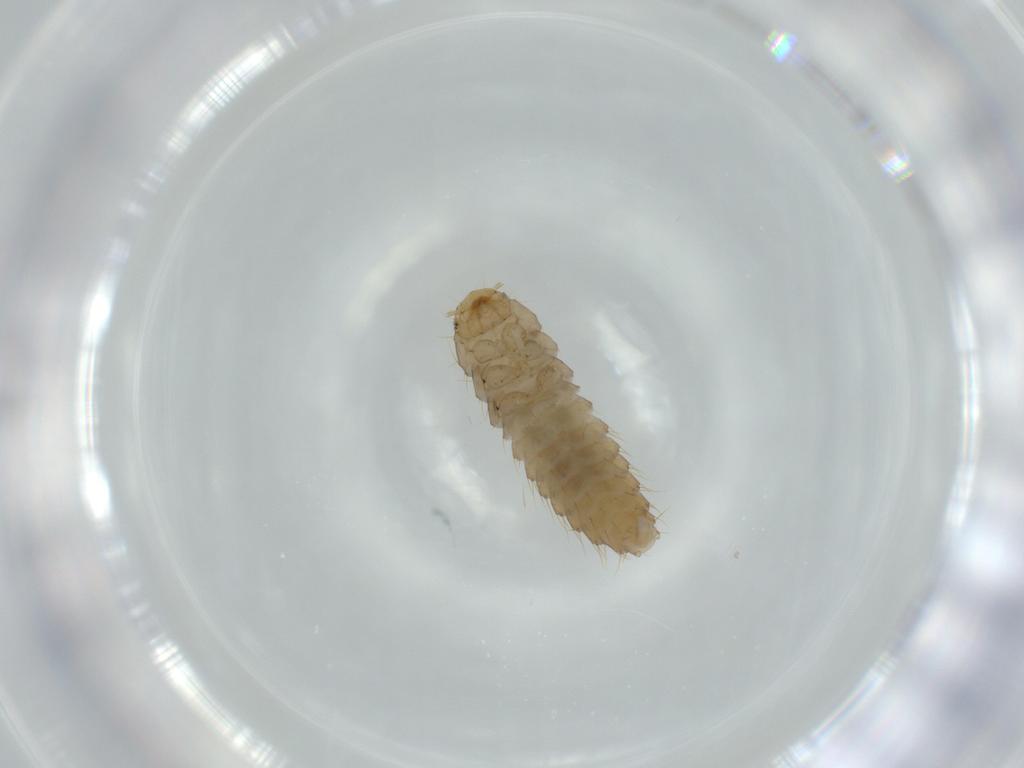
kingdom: Animalia
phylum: Arthropoda
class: Insecta
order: Coleoptera
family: Staphylinidae
